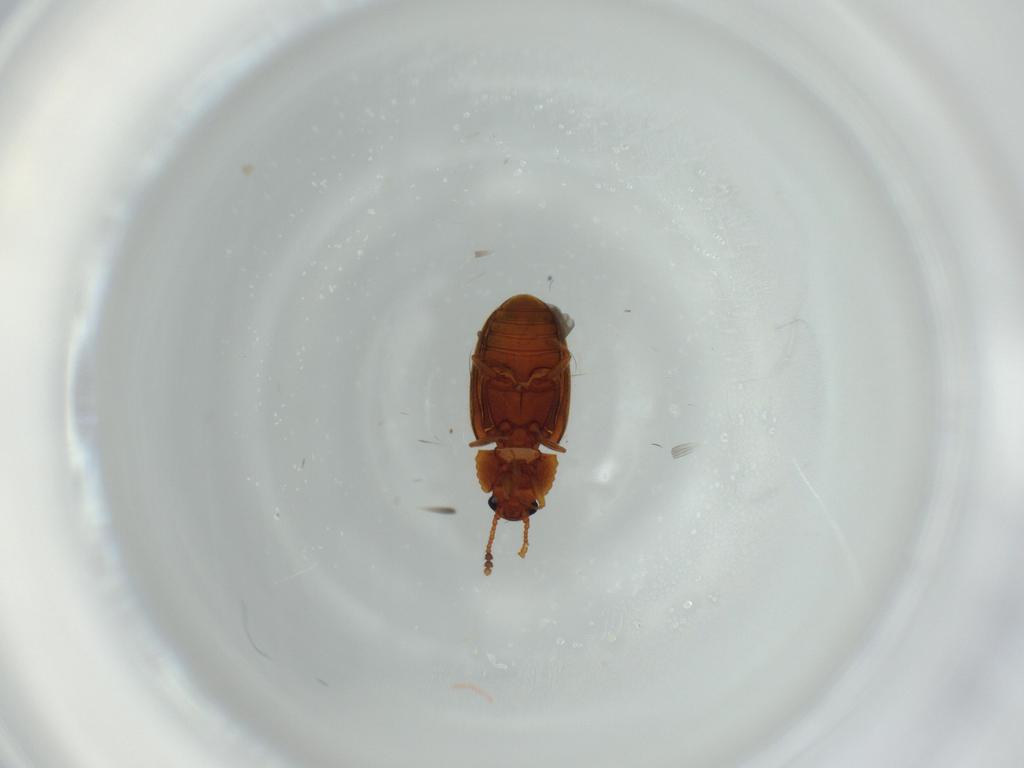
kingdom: Animalia
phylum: Arthropoda
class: Insecta
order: Coleoptera
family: Erotylidae
